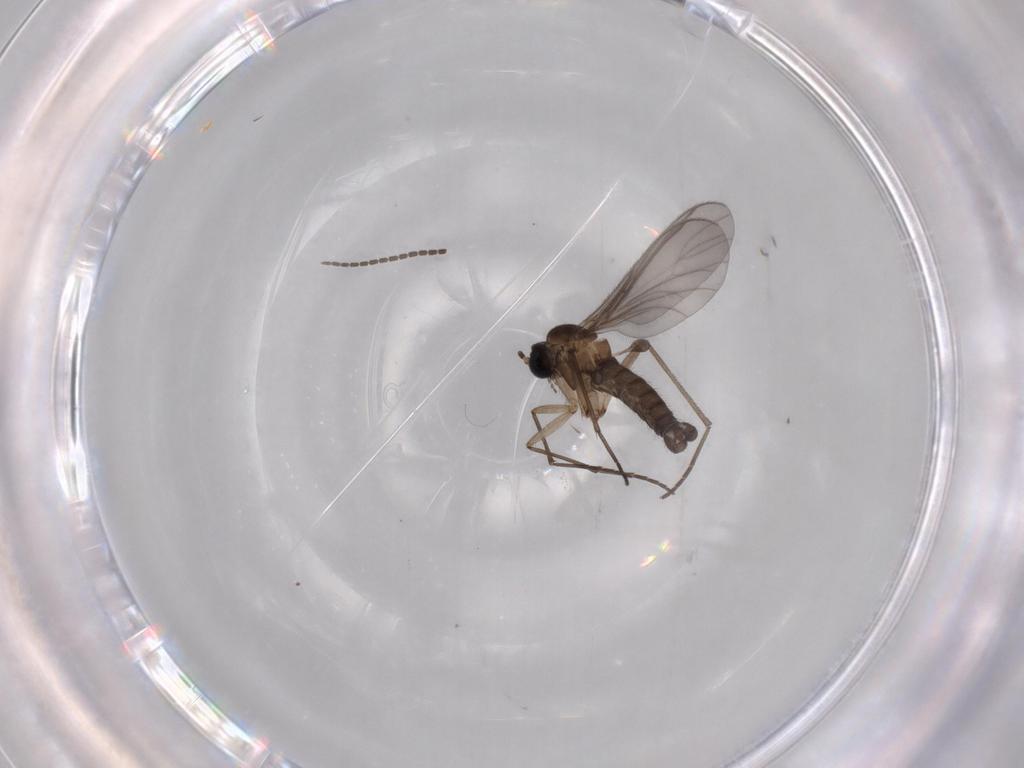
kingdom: Animalia
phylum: Arthropoda
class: Insecta
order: Diptera
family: Sciaridae
